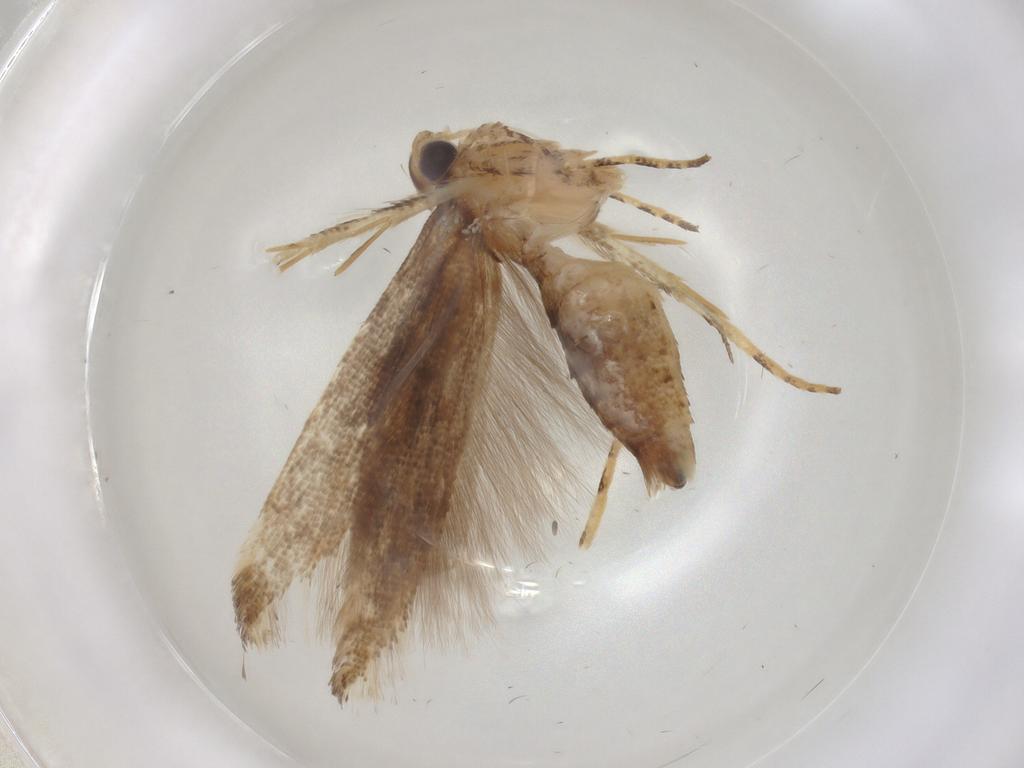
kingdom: Animalia
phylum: Arthropoda
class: Insecta
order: Lepidoptera
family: Gelechiidae
